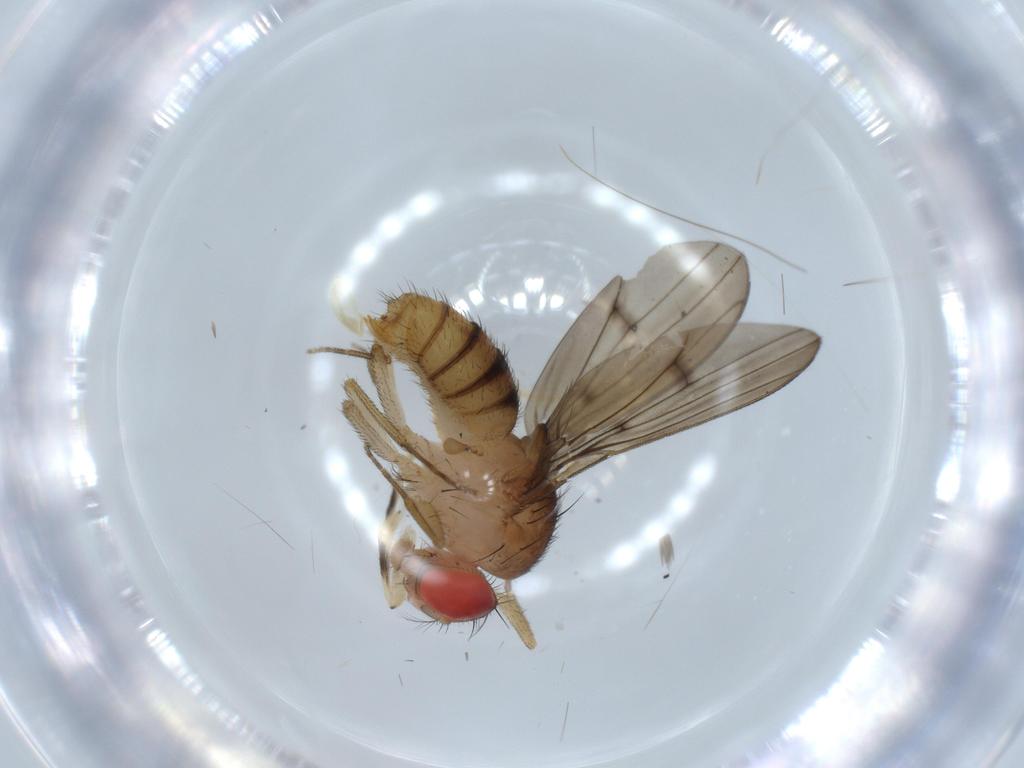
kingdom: Animalia
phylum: Arthropoda
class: Insecta
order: Diptera
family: Drosophilidae
